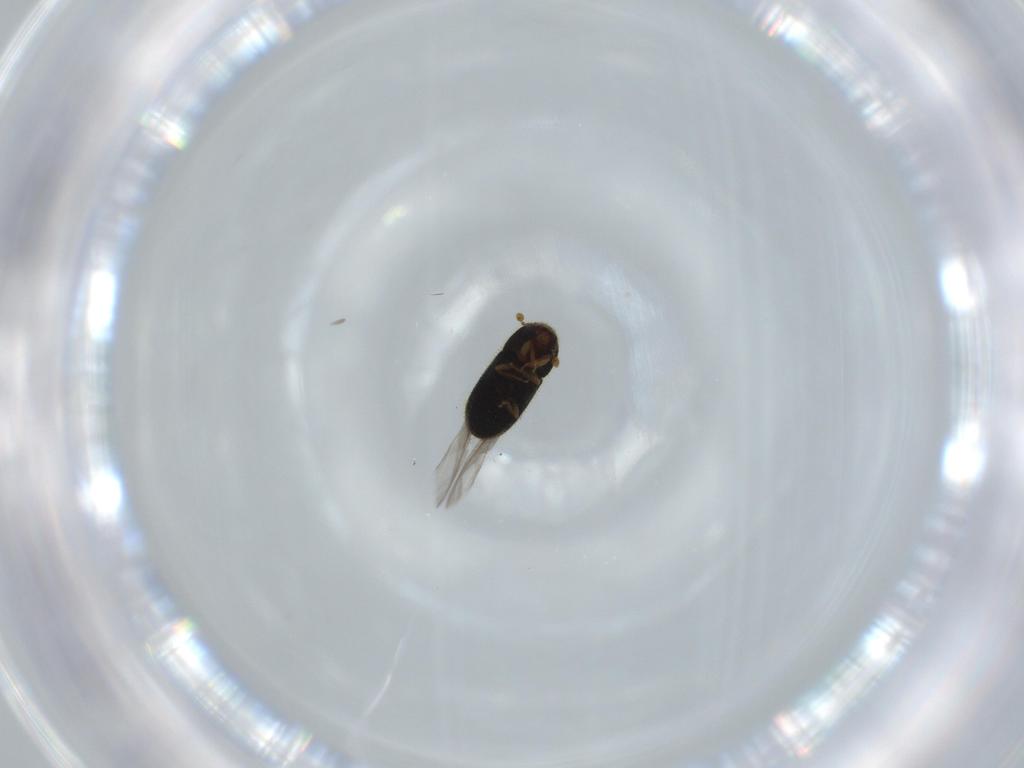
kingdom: Animalia
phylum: Arthropoda
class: Insecta
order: Coleoptera
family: Curculionidae
